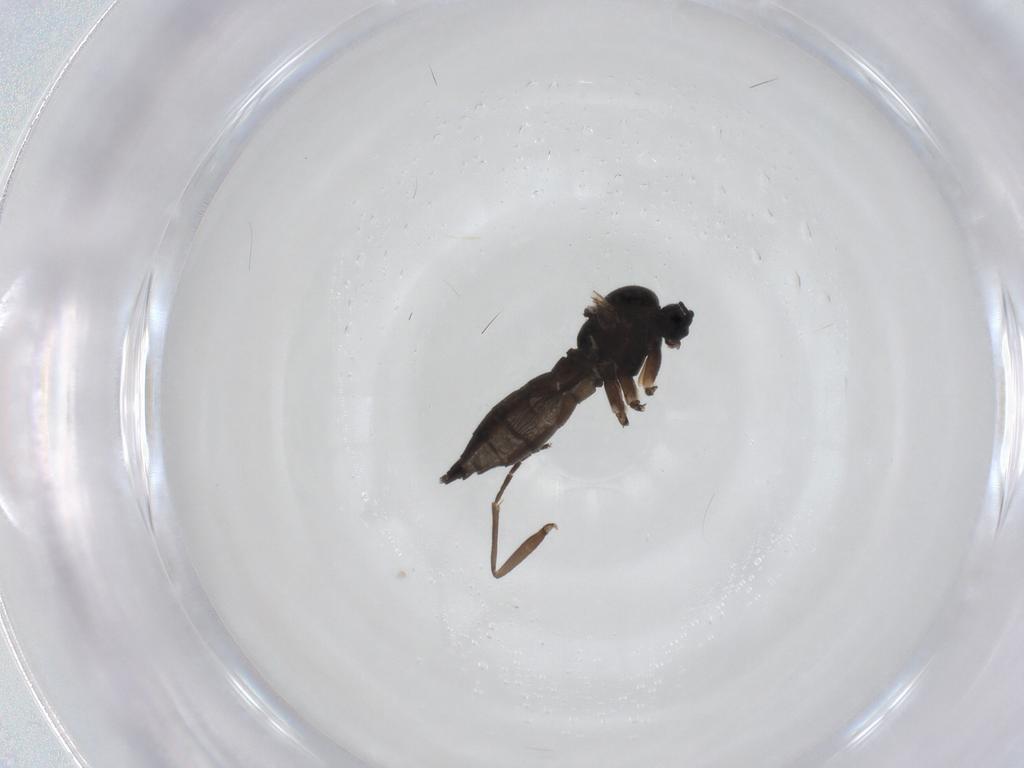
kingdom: Animalia
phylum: Arthropoda
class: Insecta
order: Diptera
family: Sciaridae
